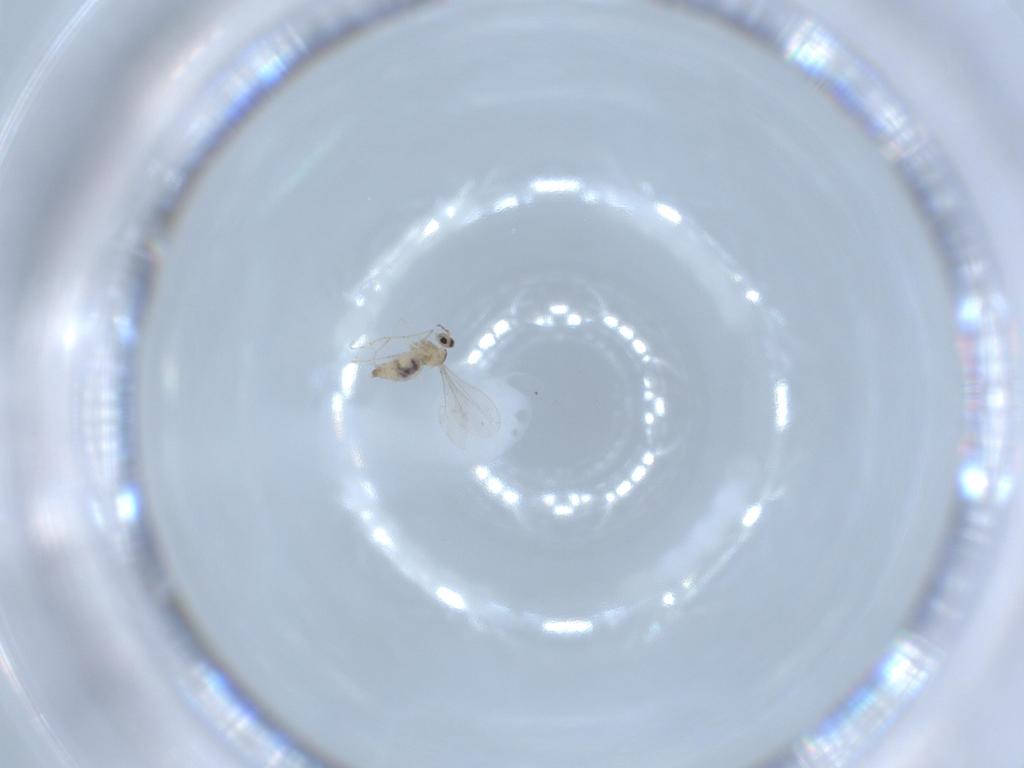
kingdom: Animalia
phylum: Arthropoda
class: Insecta
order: Diptera
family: Cecidomyiidae
